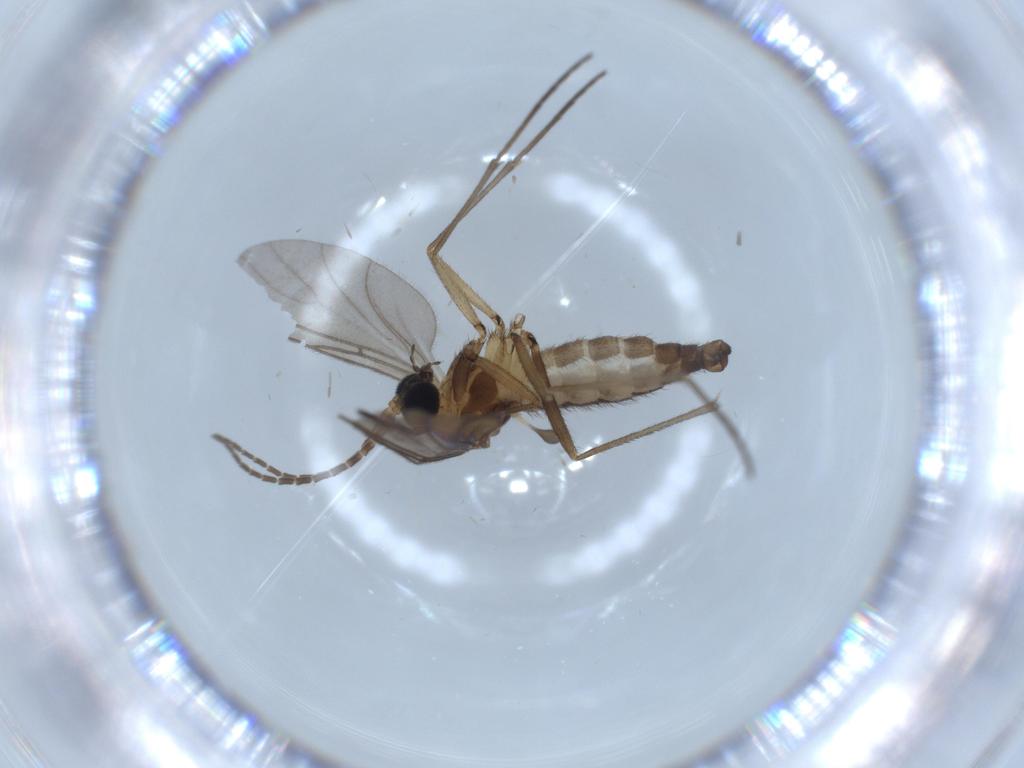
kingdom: Animalia
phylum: Arthropoda
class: Insecta
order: Diptera
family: Sciaridae
